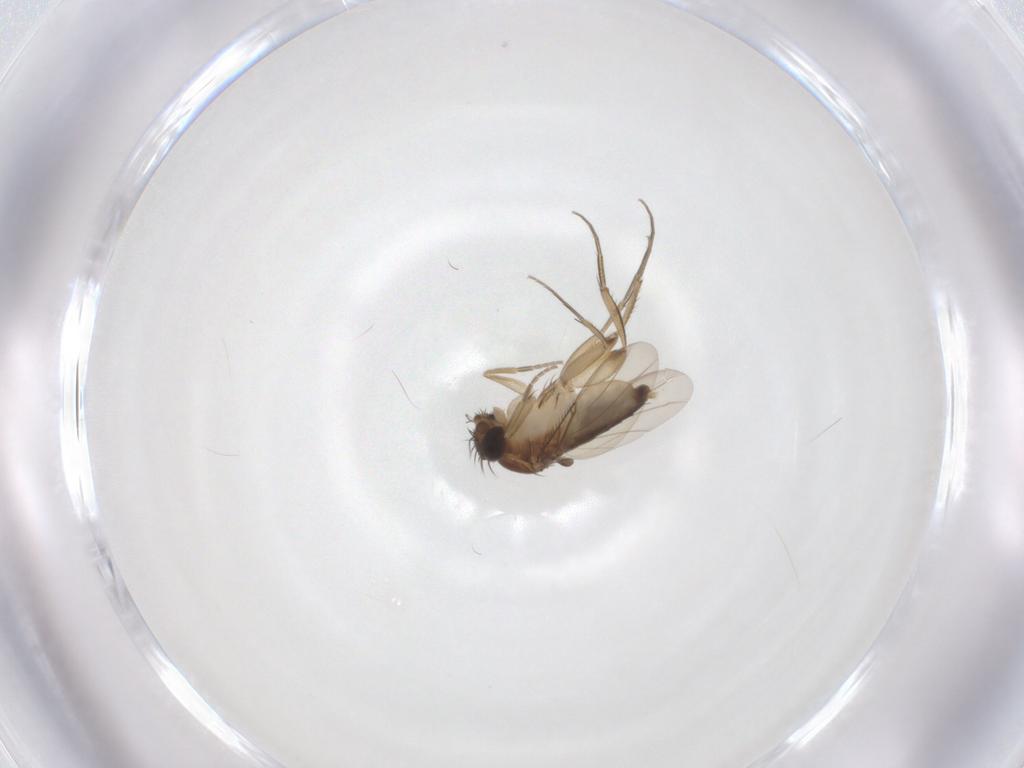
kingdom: Animalia
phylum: Arthropoda
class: Insecta
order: Diptera
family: Phoridae
